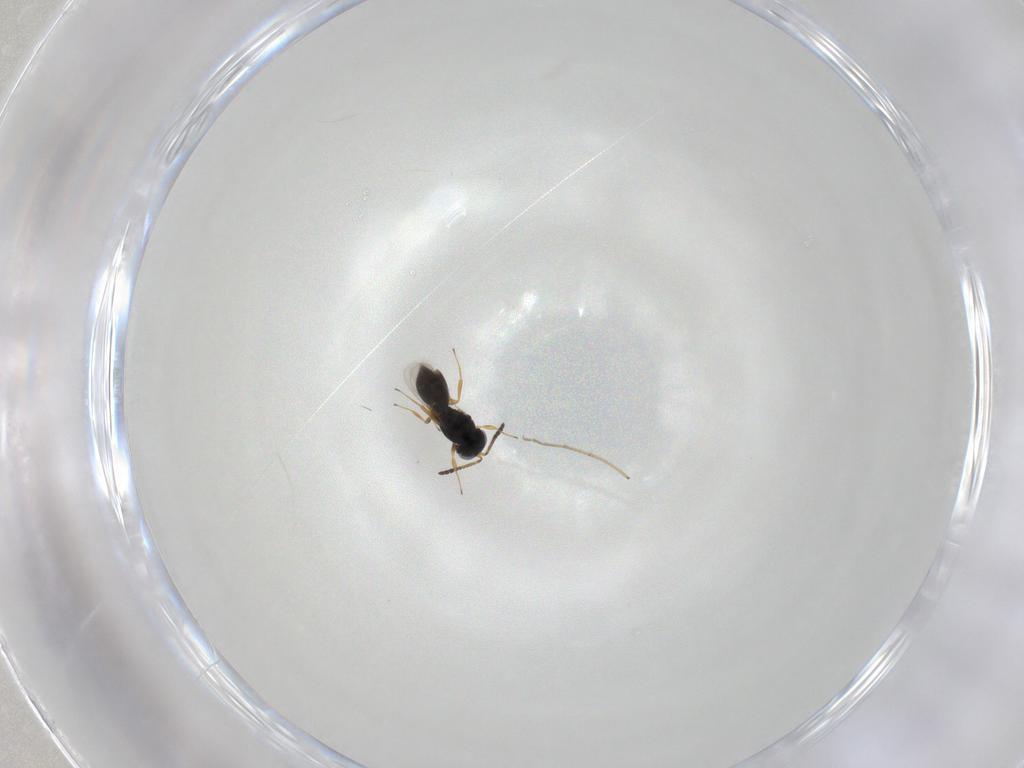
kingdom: Animalia
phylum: Arthropoda
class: Insecta
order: Hymenoptera
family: Scelionidae
